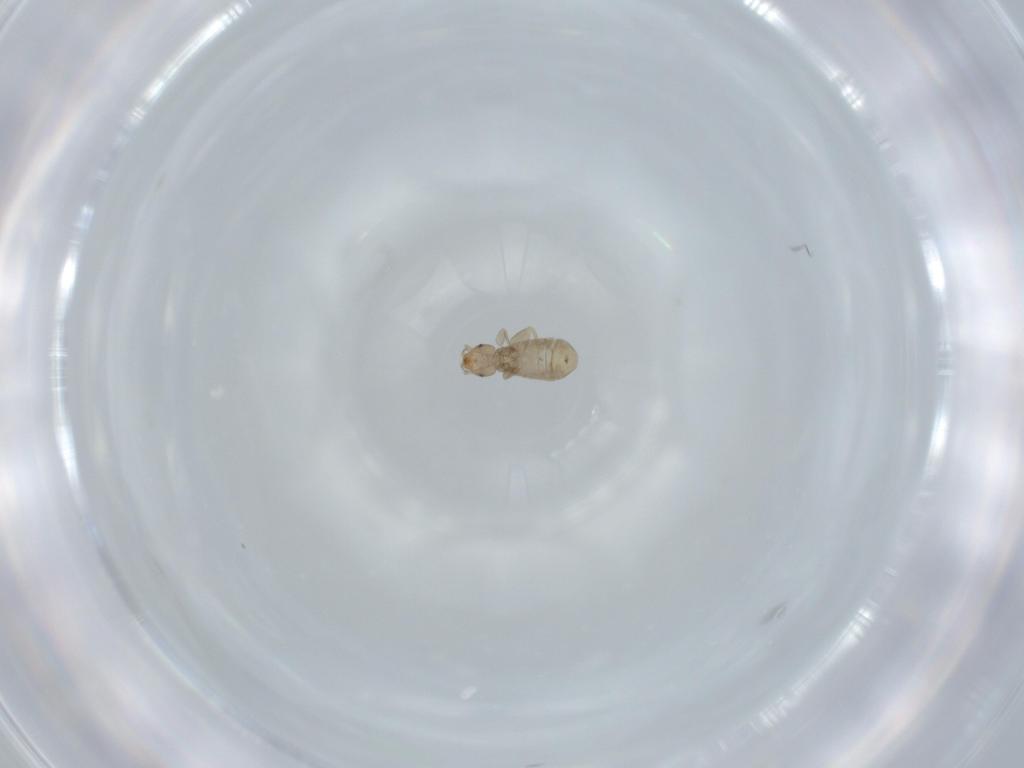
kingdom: Animalia
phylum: Arthropoda
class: Insecta
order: Psocodea
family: Liposcelididae
